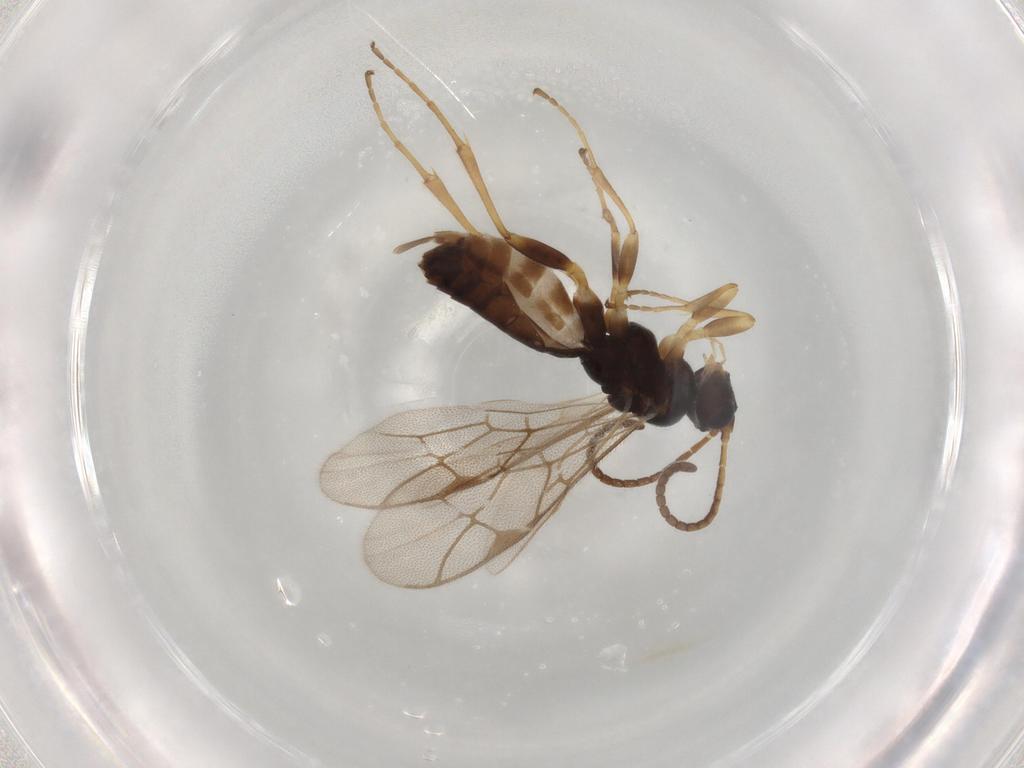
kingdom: Animalia
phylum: Arthropoda
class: Insecta
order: Hymenoptera
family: Ichneumonidae
